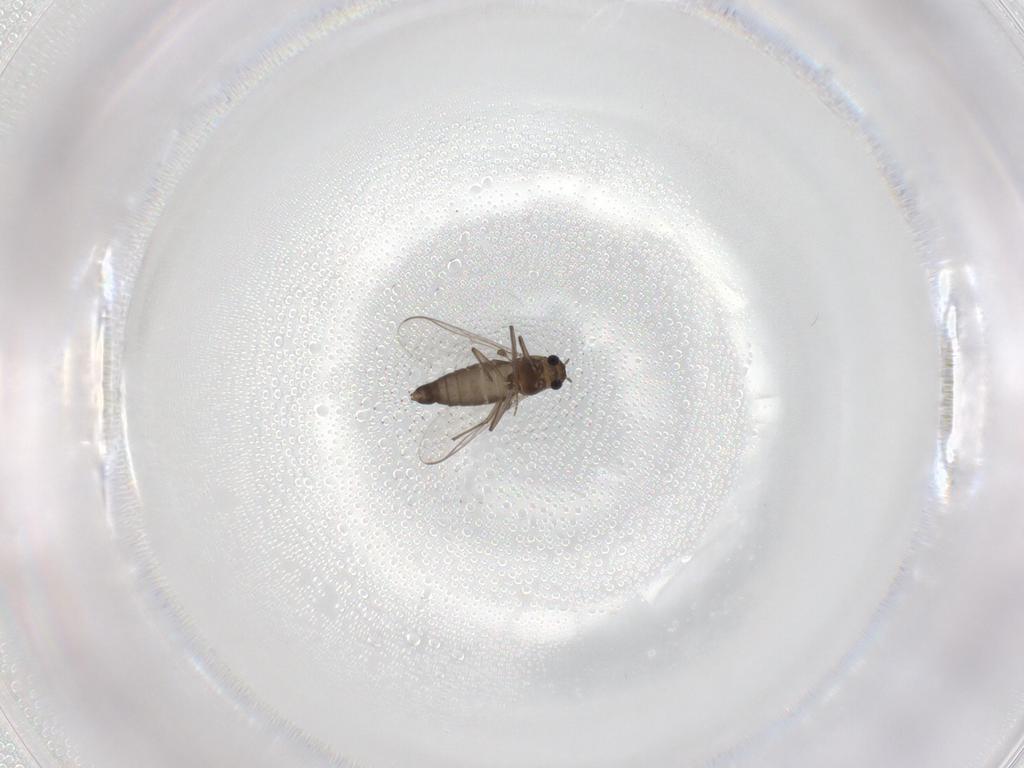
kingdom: Animalia
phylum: Arthropoda
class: Insecta
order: Diptera
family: Chironomidae
